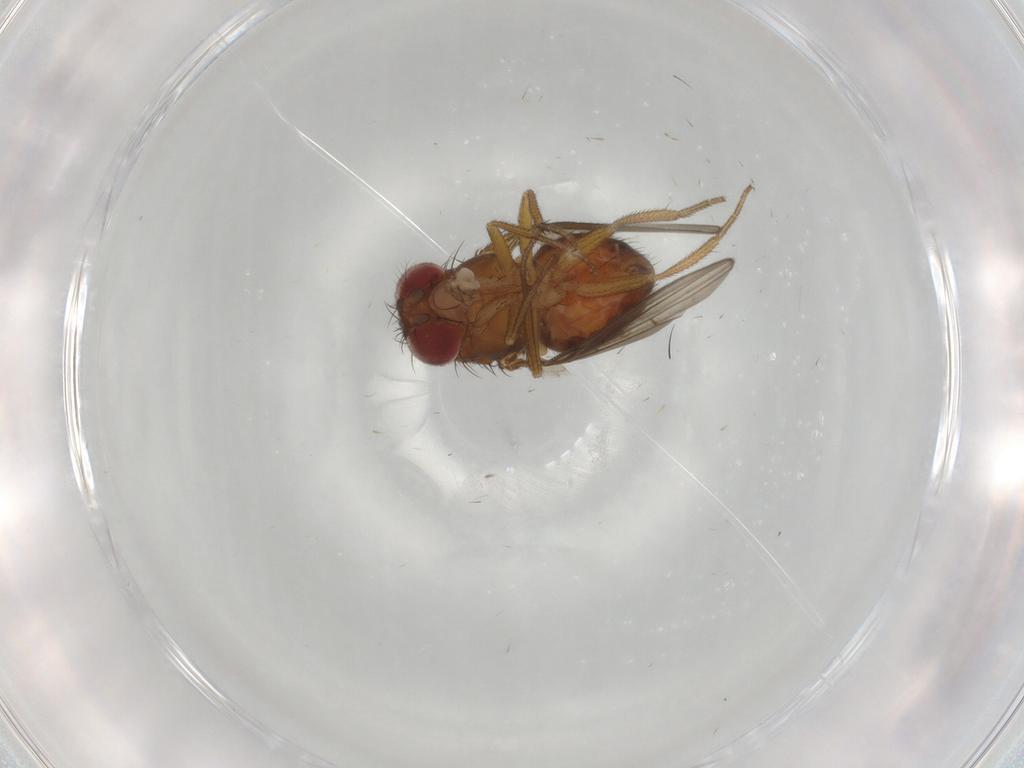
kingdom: Animalia
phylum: Arthropoda
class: Insecta
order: Diptera
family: Drosophilidae
